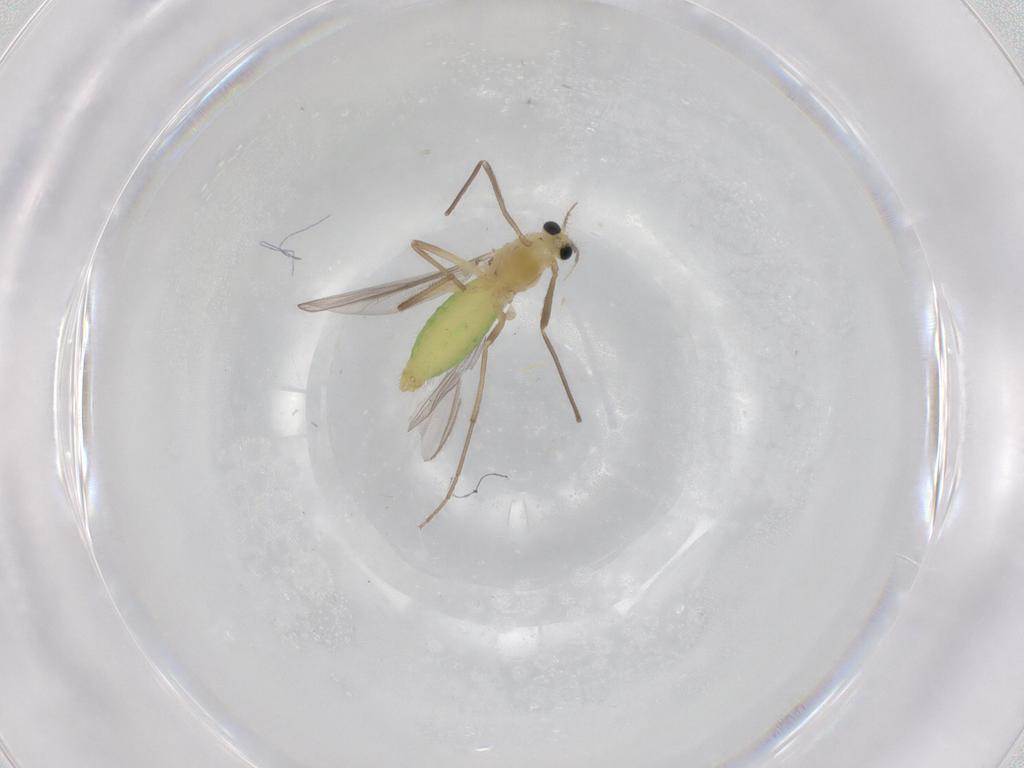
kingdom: Animalia
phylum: Arthropoda
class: Insecta
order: Diptera
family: Chironomidae
